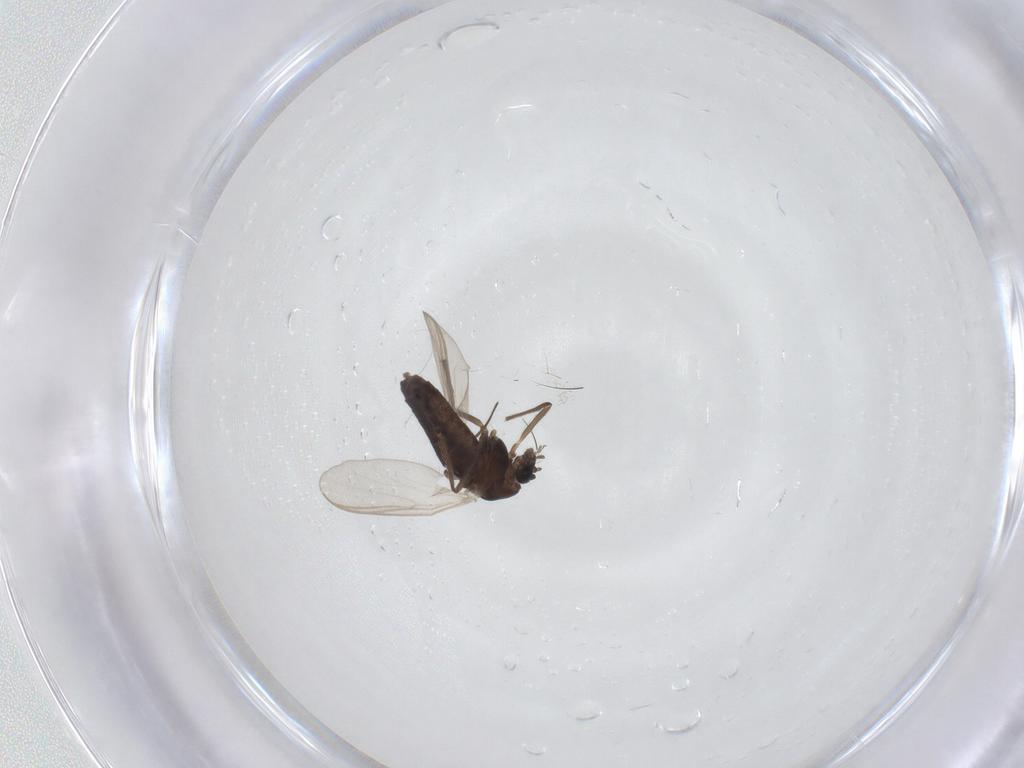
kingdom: Animalia
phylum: Arthropoda
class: Insecta
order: Diptera
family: Chironomidae
